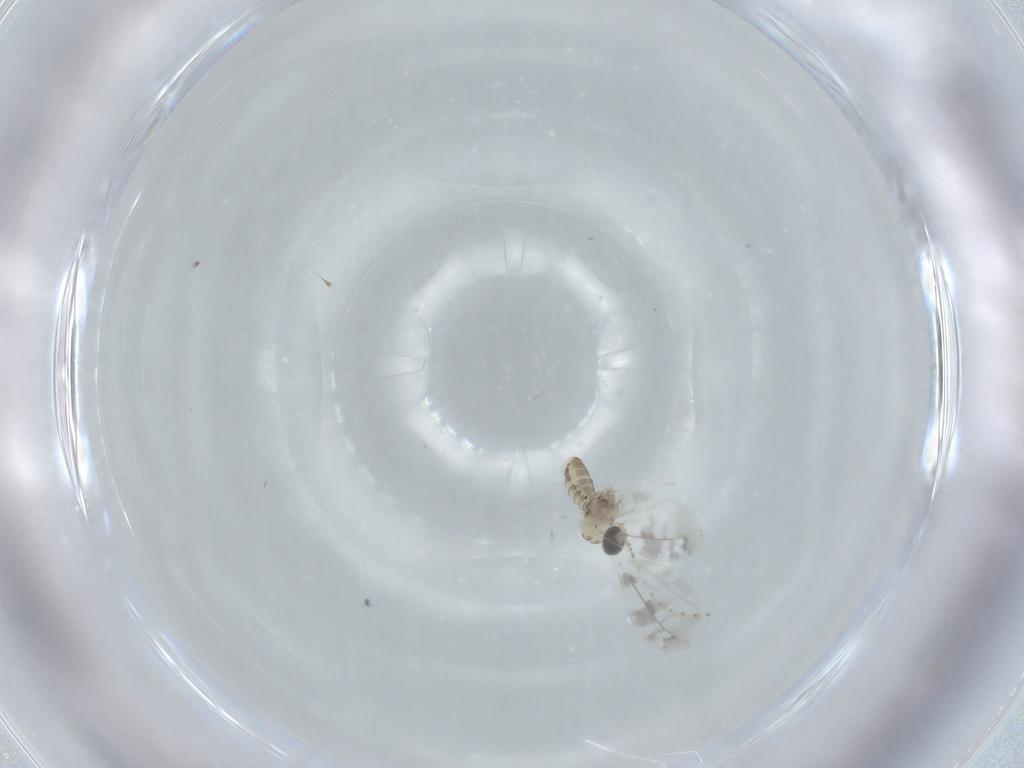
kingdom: Animalia
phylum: Arthropoda
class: Insecta
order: Diptera
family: Cecidomyiidae
